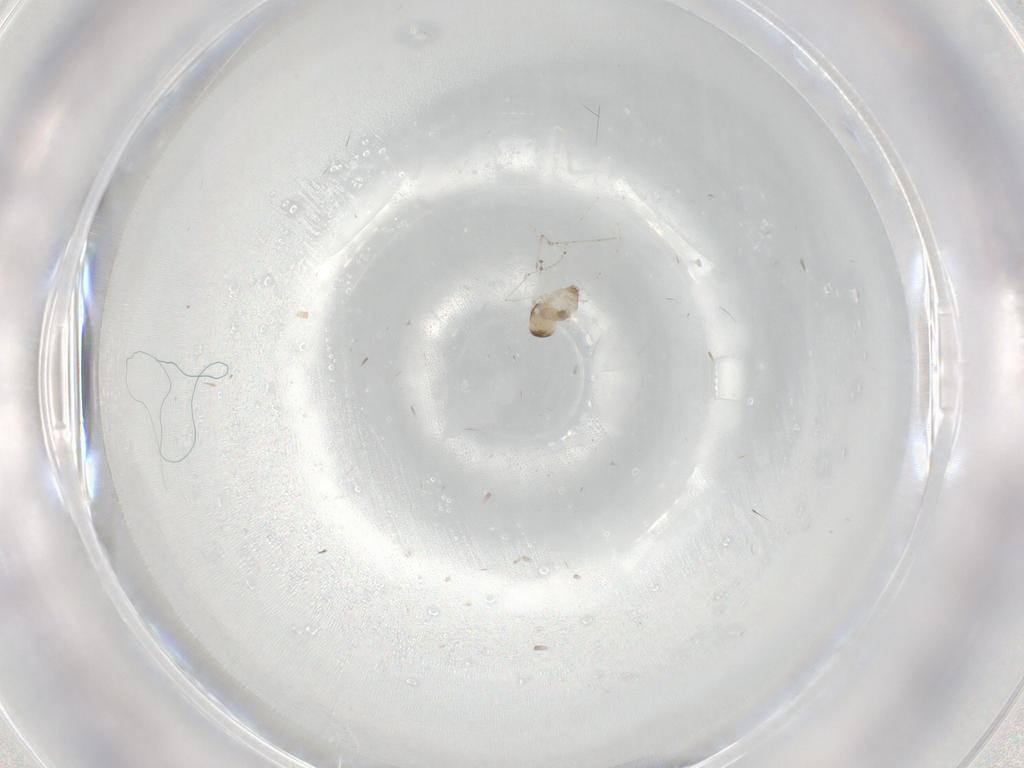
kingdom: Animalia
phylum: Arthropoda
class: Insecta
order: Diptera
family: Cecidomyiidae
